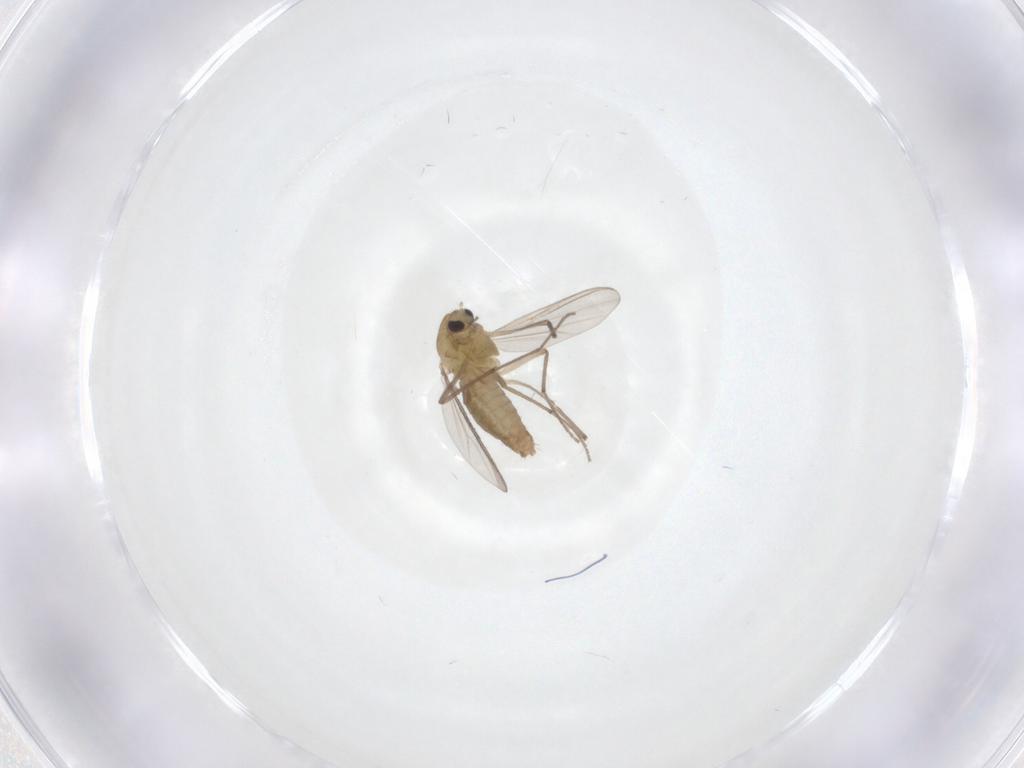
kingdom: Animalia
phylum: Arthropoda
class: Insecta
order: Diptera
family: Chironomidae
